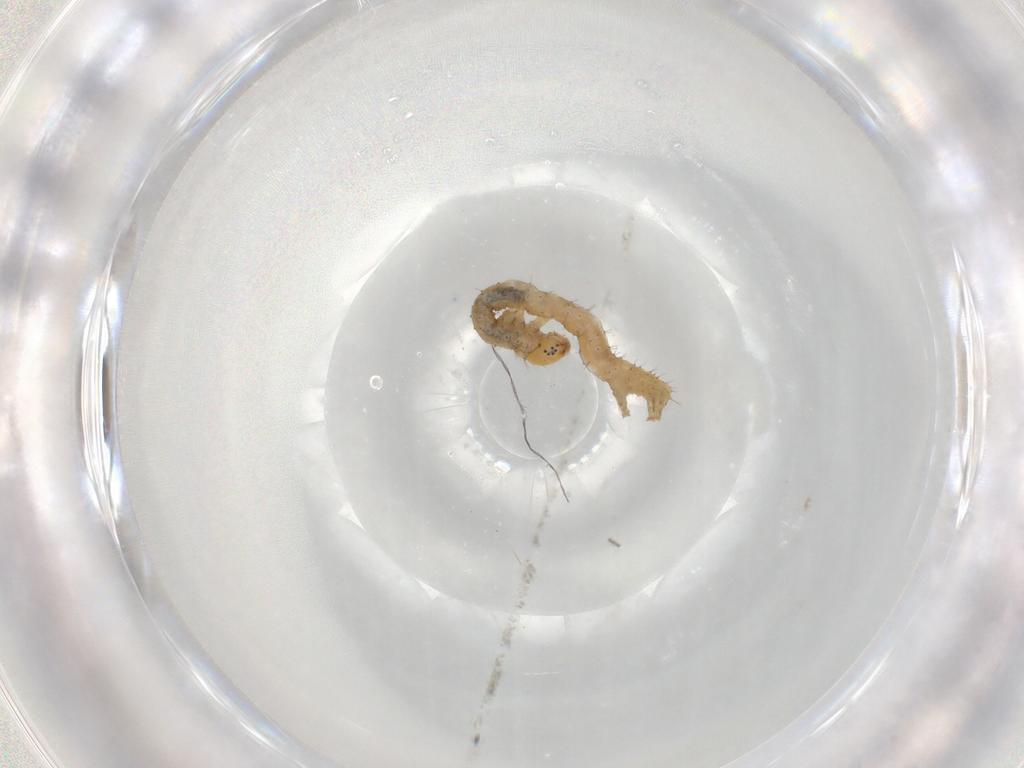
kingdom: Animalia
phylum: Arthropoda
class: Insecta
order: Lepidoptera
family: Geometridae
